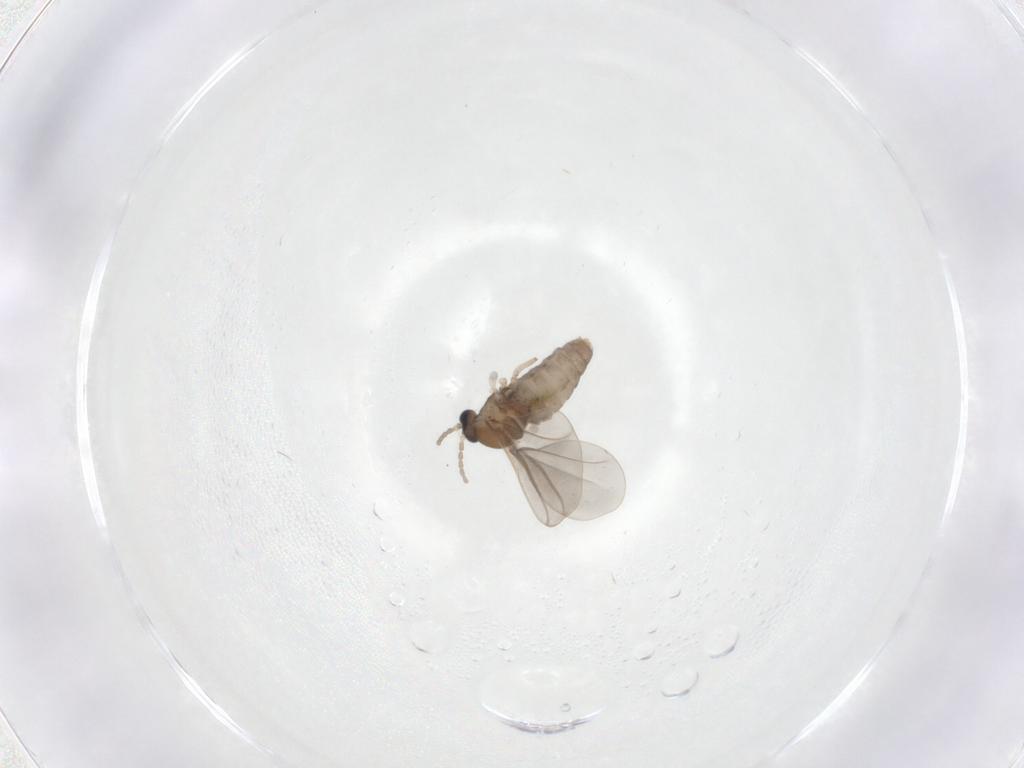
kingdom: Animalia
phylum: Arthropoda
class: Insecta
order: Diptera
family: Cecidomyiidae
